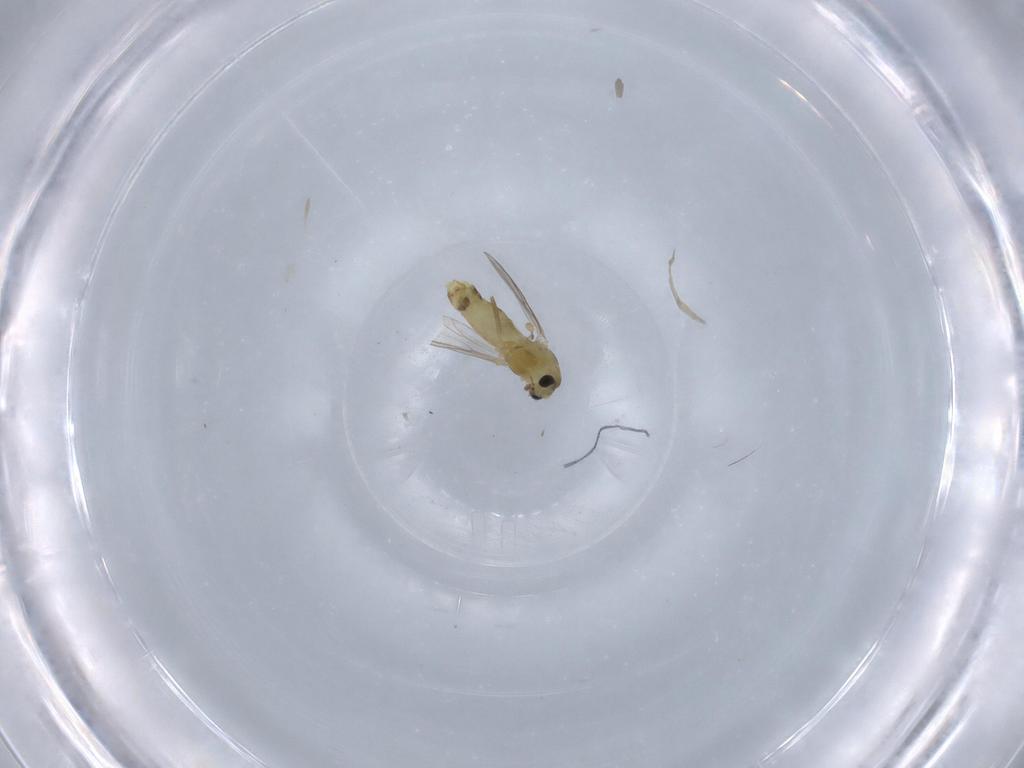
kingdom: Animalia
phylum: Arthropoda
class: Insecta
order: Diptera
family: Chironomidae
